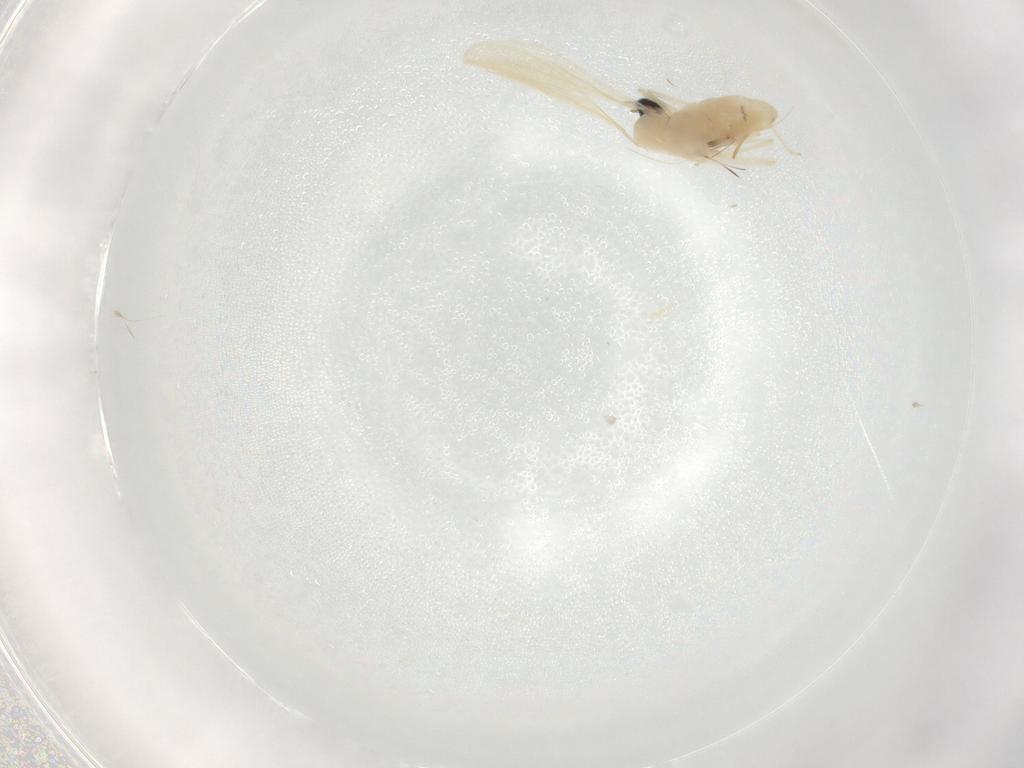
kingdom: Animalia
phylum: Arthropoda
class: Insecta
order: Diptera
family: Cecidomyiidae
